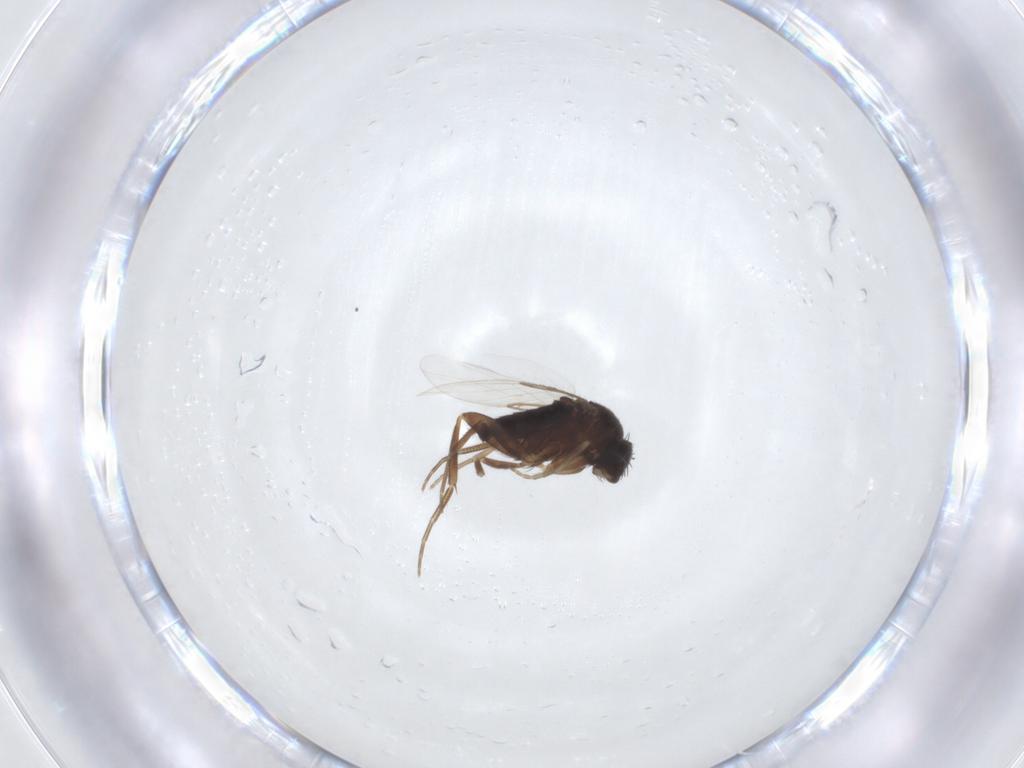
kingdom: Animalia
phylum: Arthropoda
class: Insecta
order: Diptera
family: Phoridae
